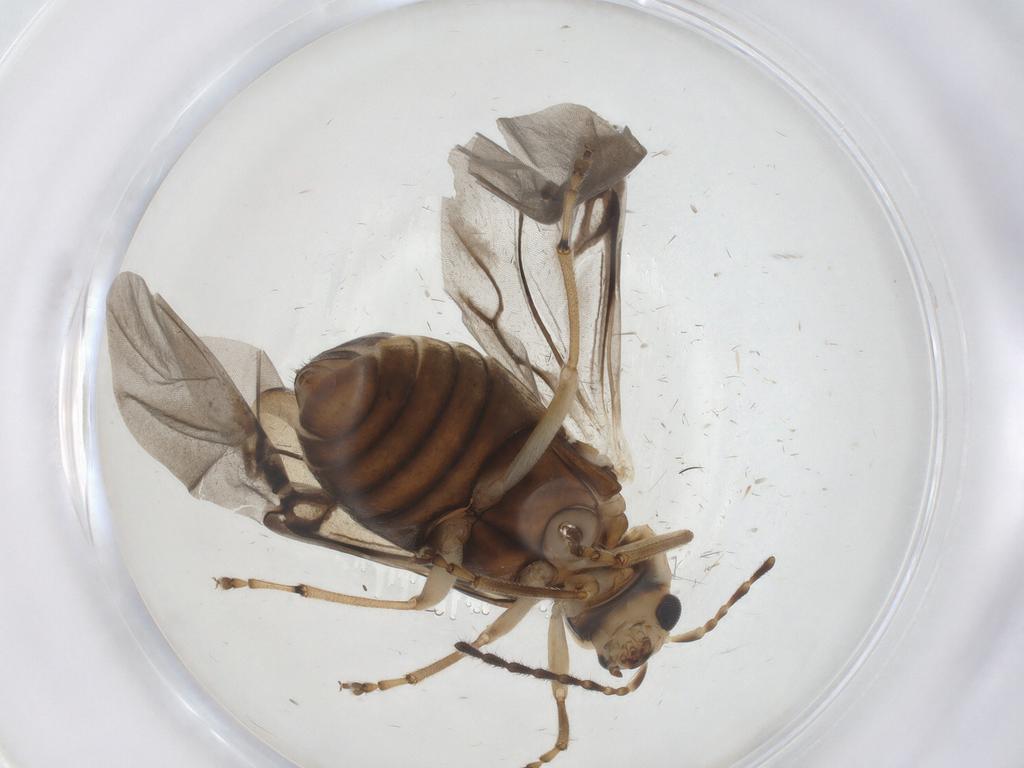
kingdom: Animalia
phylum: Arthropoda
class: Insecta
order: Coleoptera
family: Chrysomelidae
